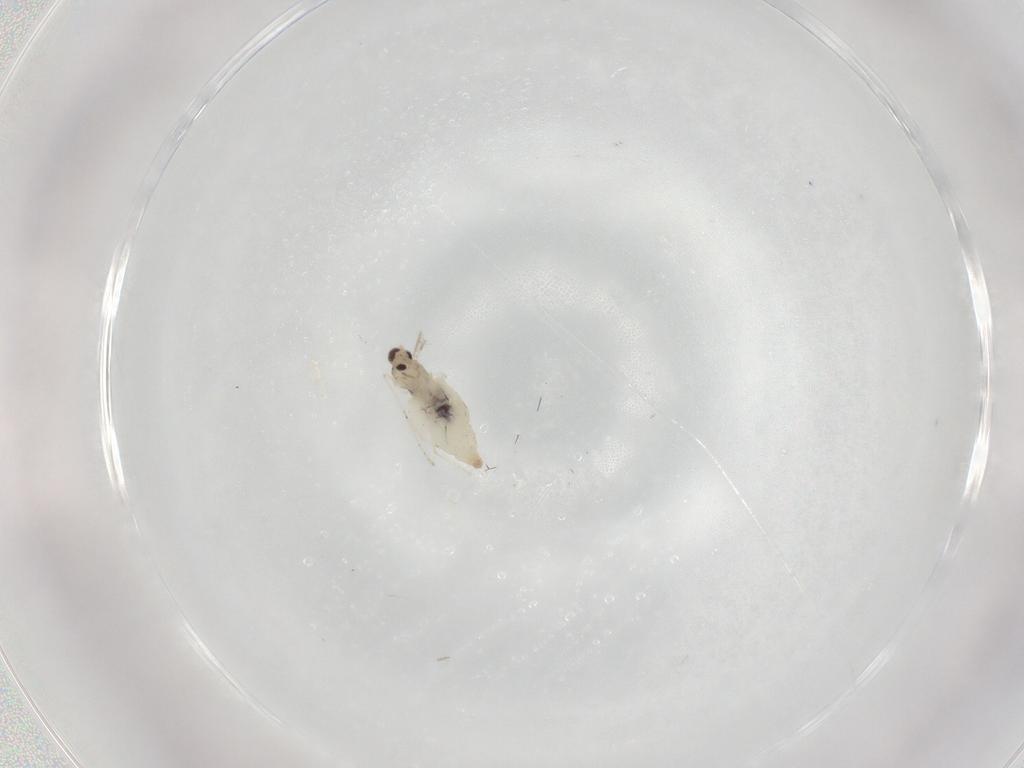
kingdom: Animalia
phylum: Arthropoda
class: Insecta
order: Diptera
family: Cecidomyiidae
